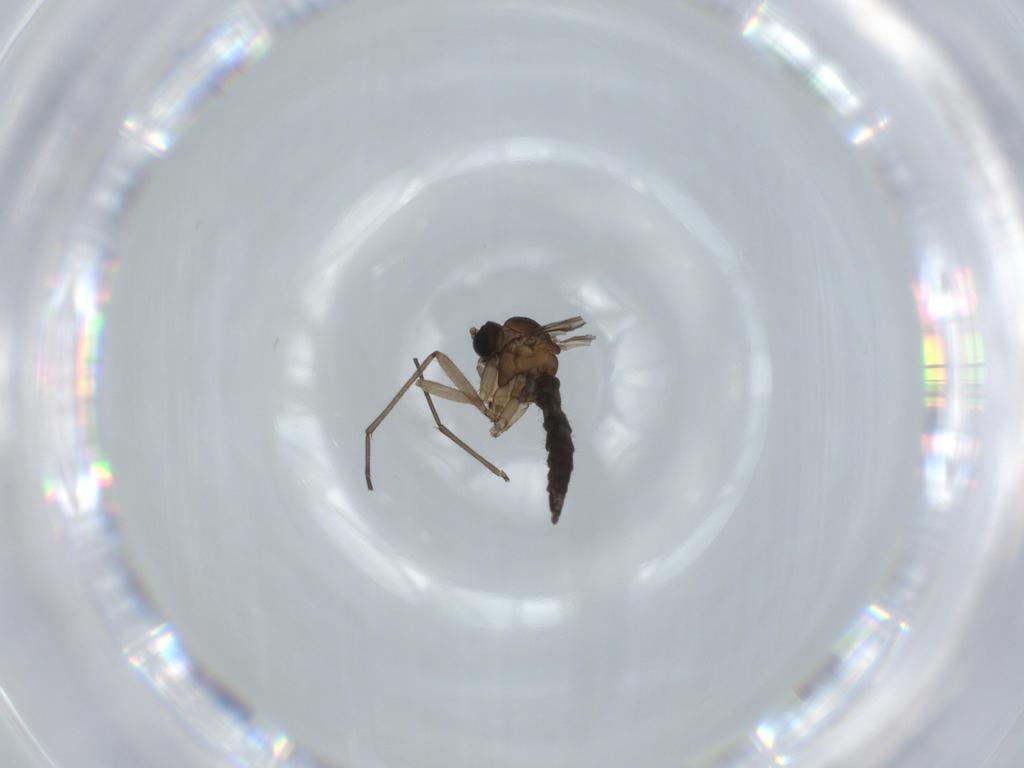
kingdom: Animalia
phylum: Arthropoda
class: Insecta
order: Diptera
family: Sciaridae
